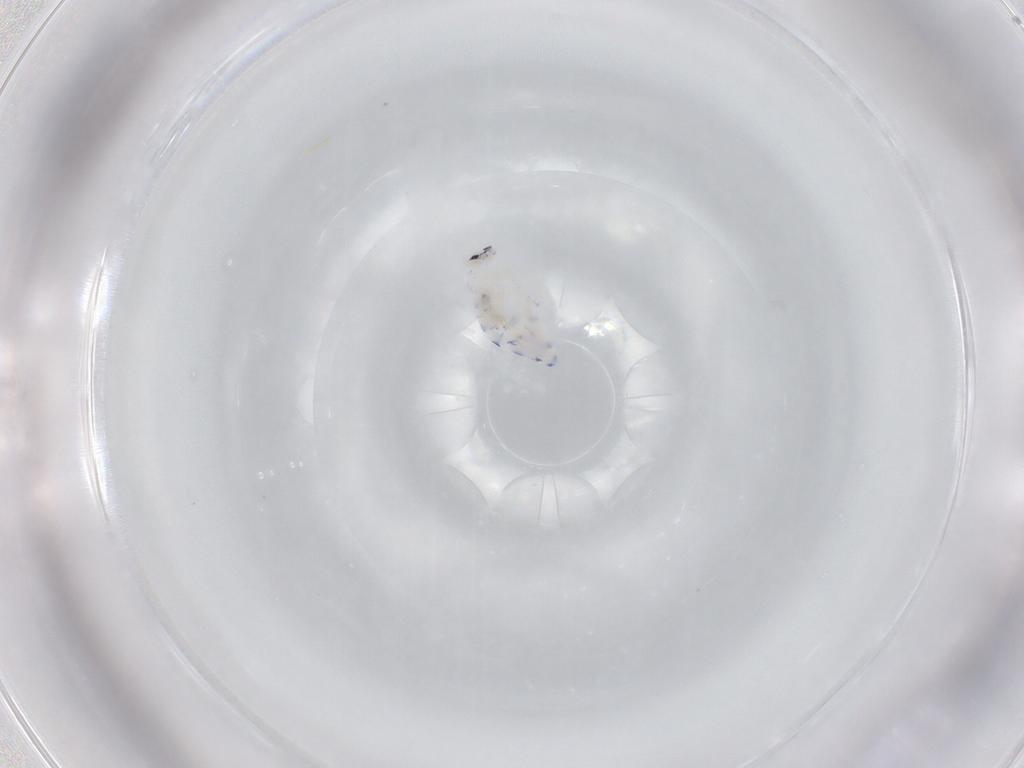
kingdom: Animalia
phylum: Arthropoda
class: Collembola
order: Entomobryomorpha
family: Entomobryidae
